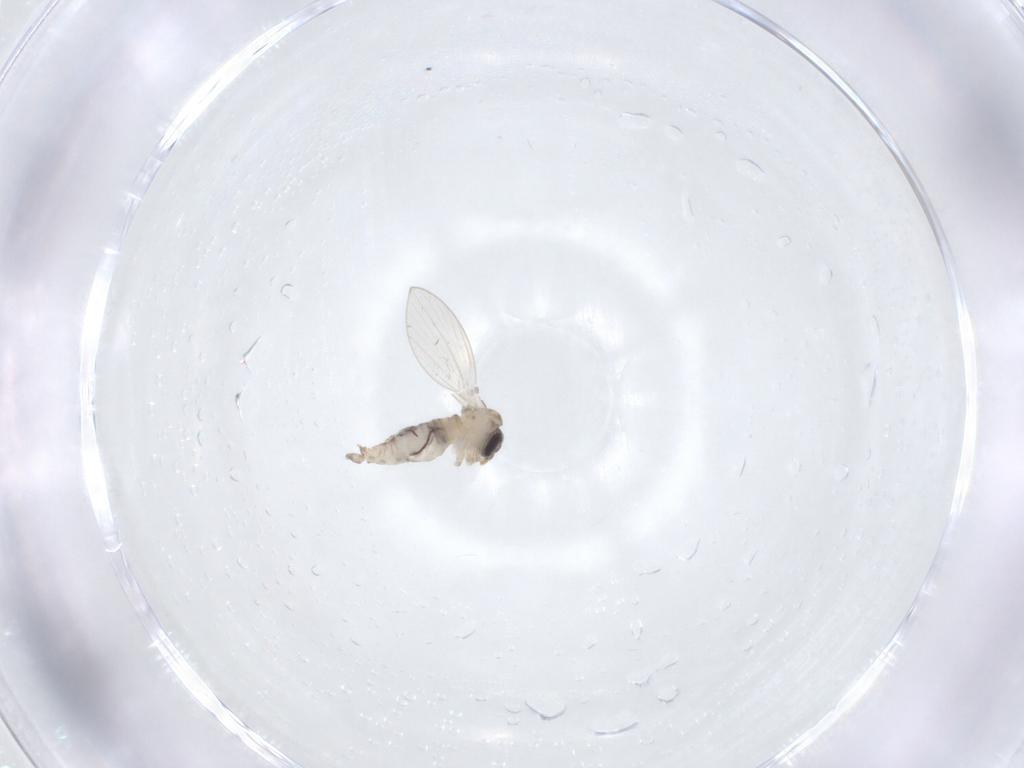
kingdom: Animalia
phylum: Arthropoda
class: Insecta
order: Diptera
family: Psychodidae
